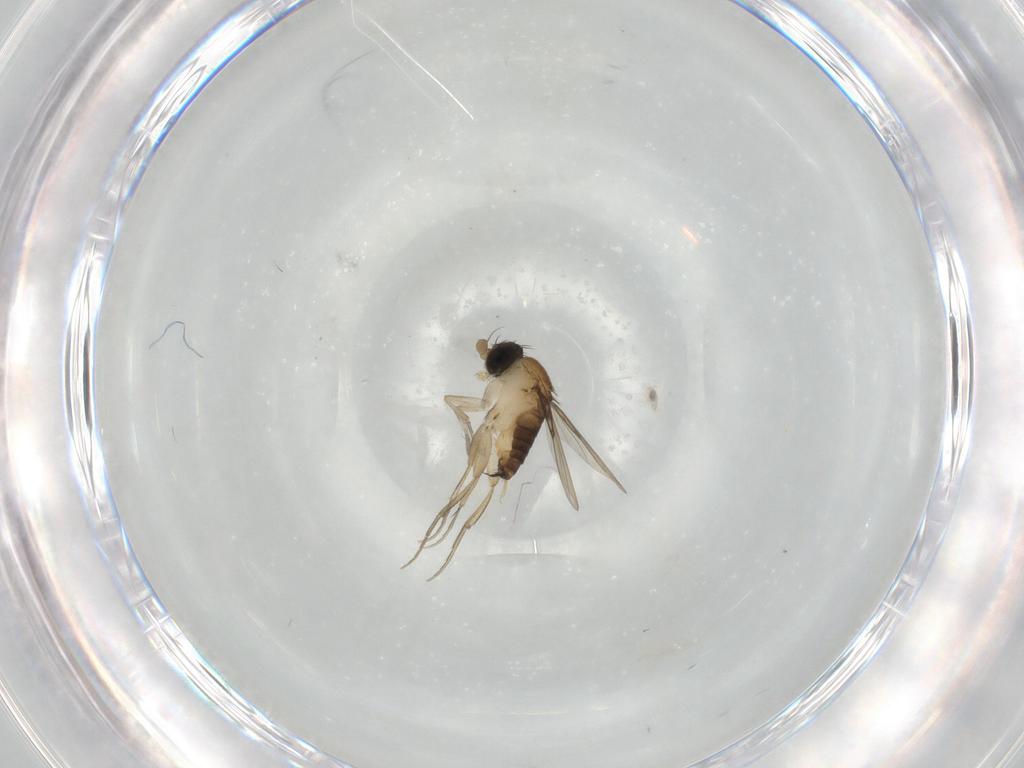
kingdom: Animalia
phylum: Arthropoda
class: Insecta
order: Diptera
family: Phoridae
